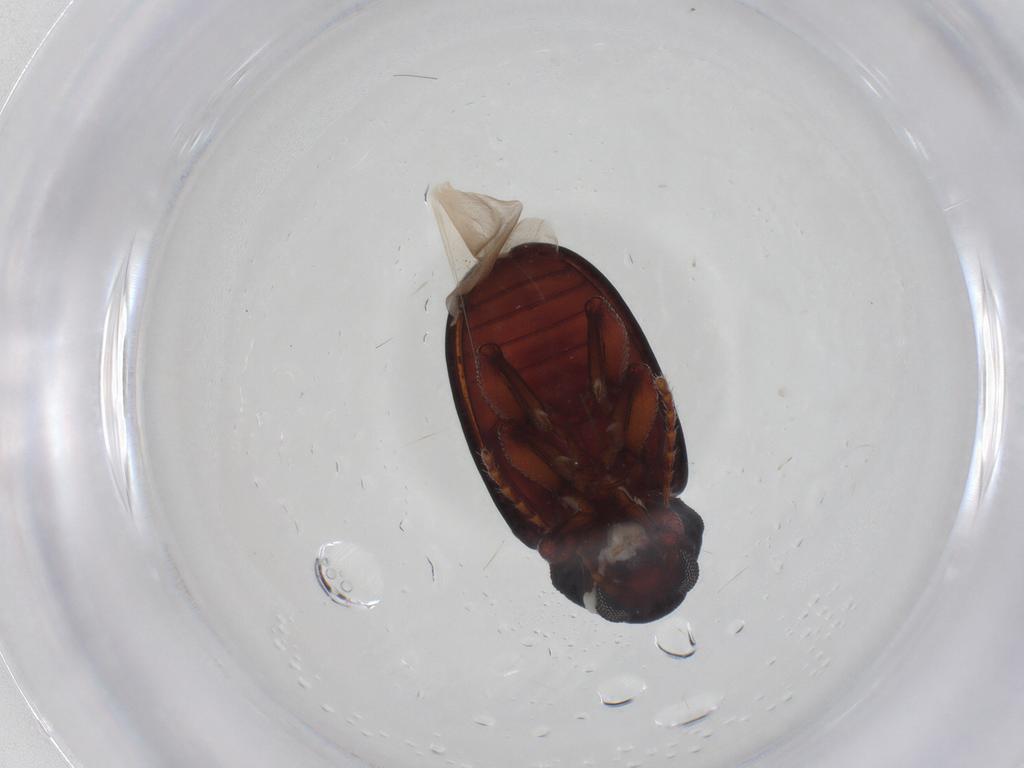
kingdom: Animalia
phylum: Arthropoda
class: Insecta
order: Coleoptera
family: Chrysomelidae
